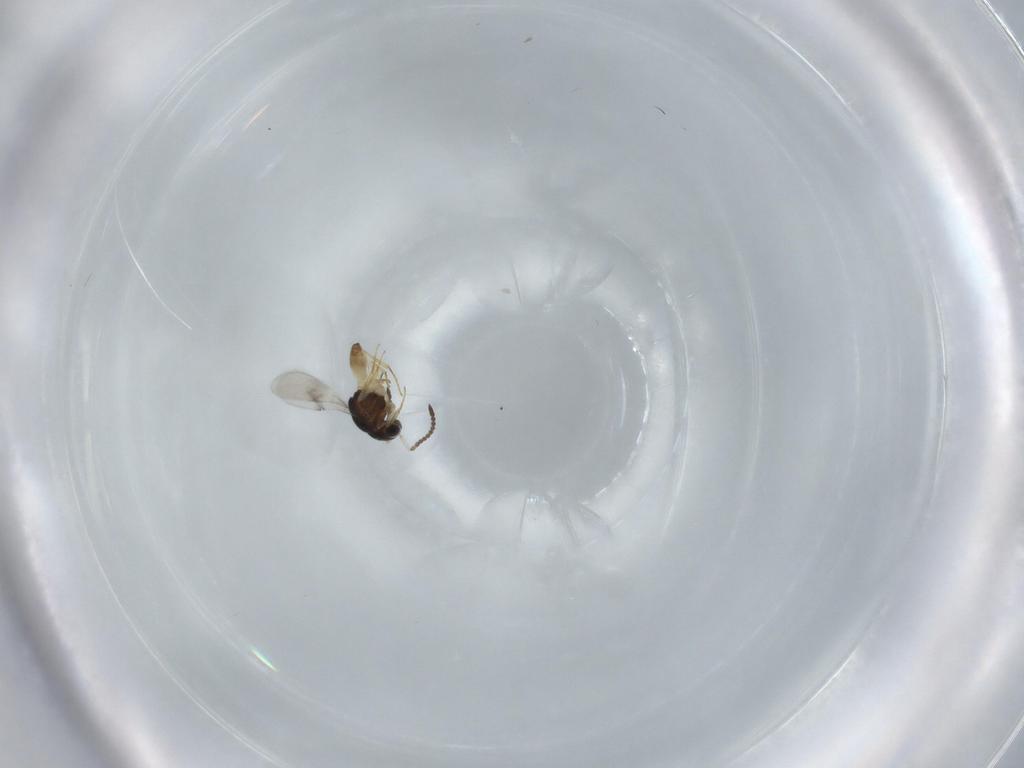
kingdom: Animalia
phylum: Arthropoda
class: Insecta
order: Hymenoptera
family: Scelionidae
